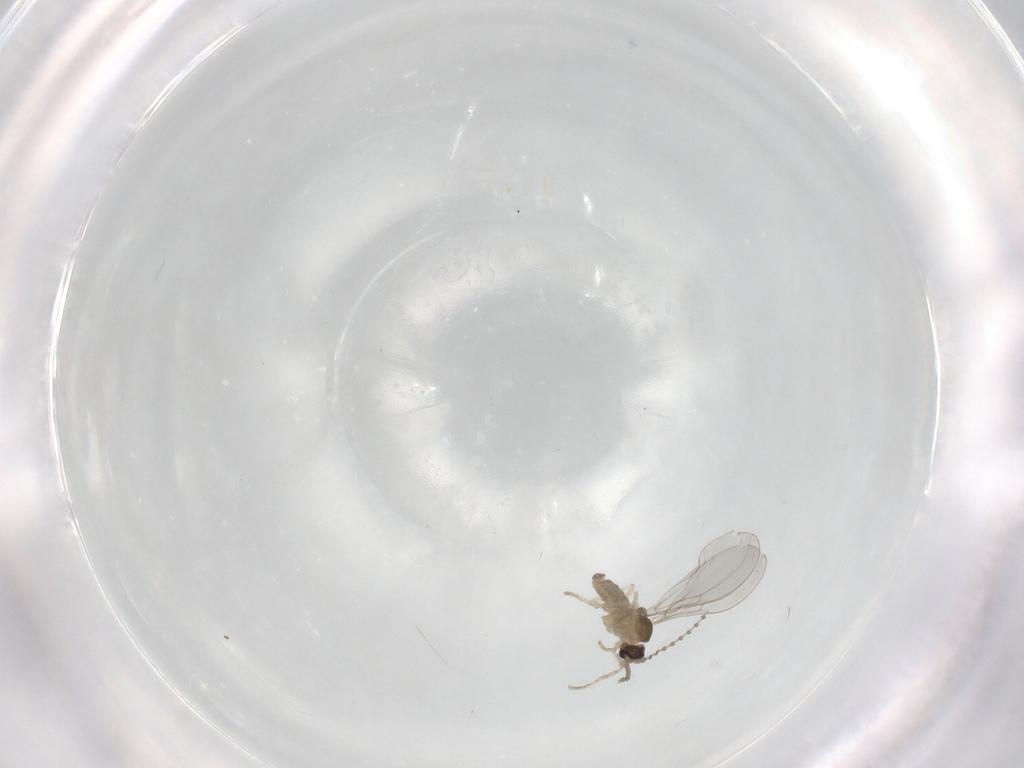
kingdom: Animalia
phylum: Arthropoda
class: Insecta
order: Diptera
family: Cecidomyiidae
